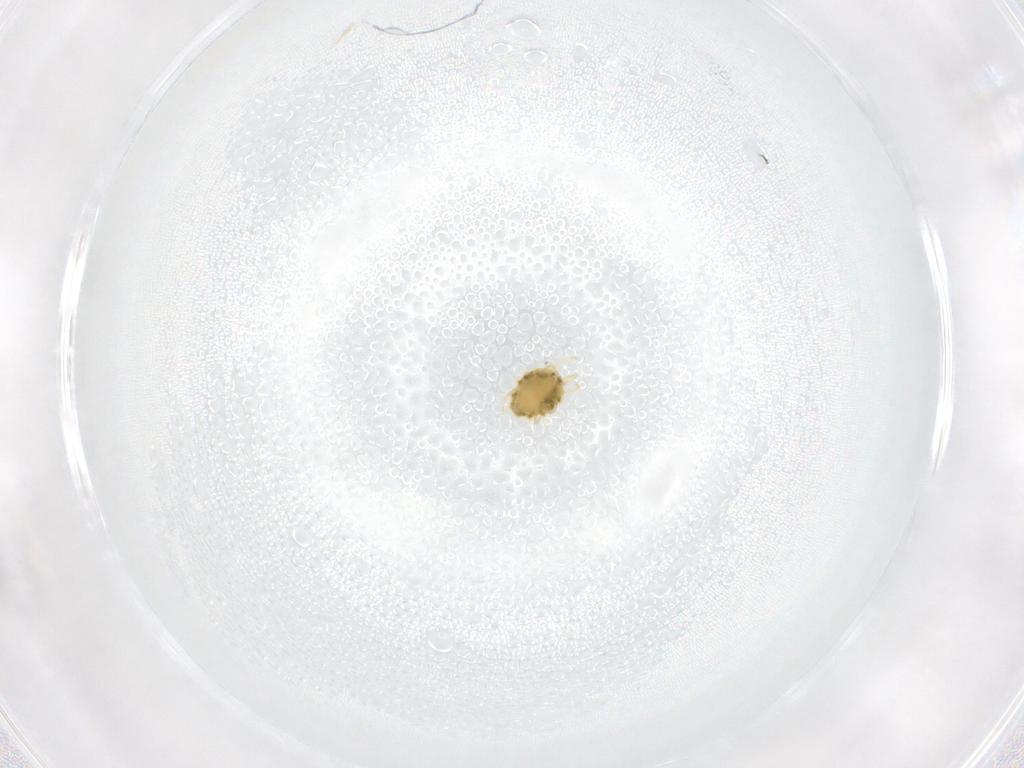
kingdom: Animalia
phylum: Arthropoda
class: Arachnida
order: Trombidiformes
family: Tetranychidae
